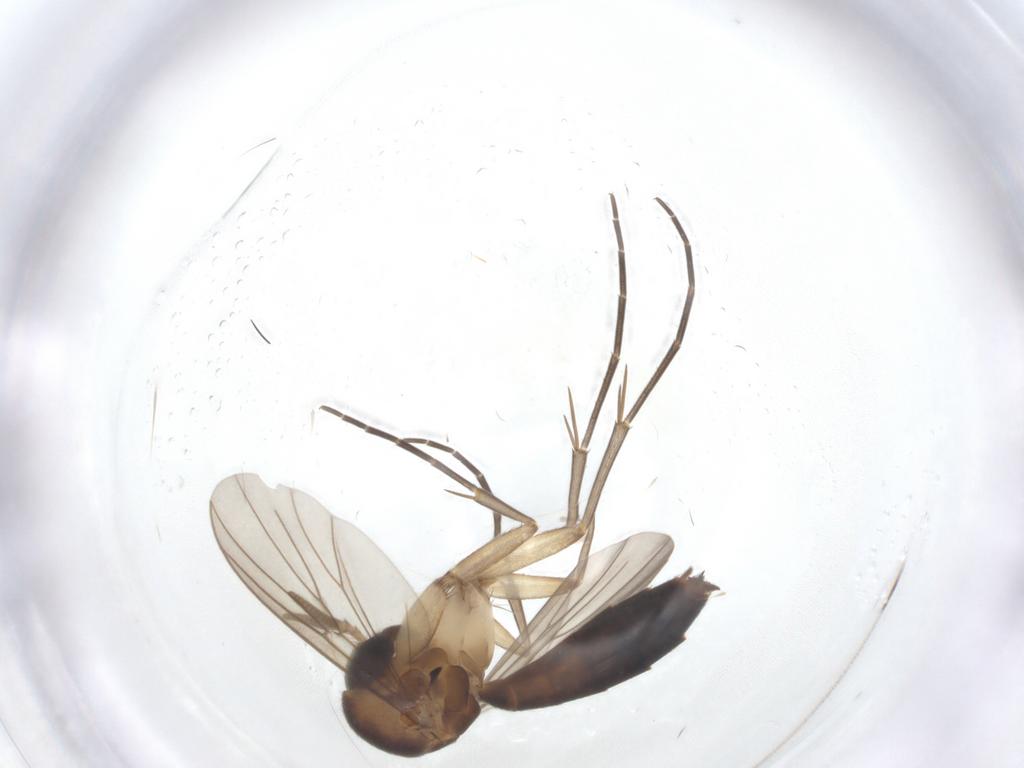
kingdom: Animalia
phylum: Arthropoda
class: Insecta
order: Diptera
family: Mycetophilidae
